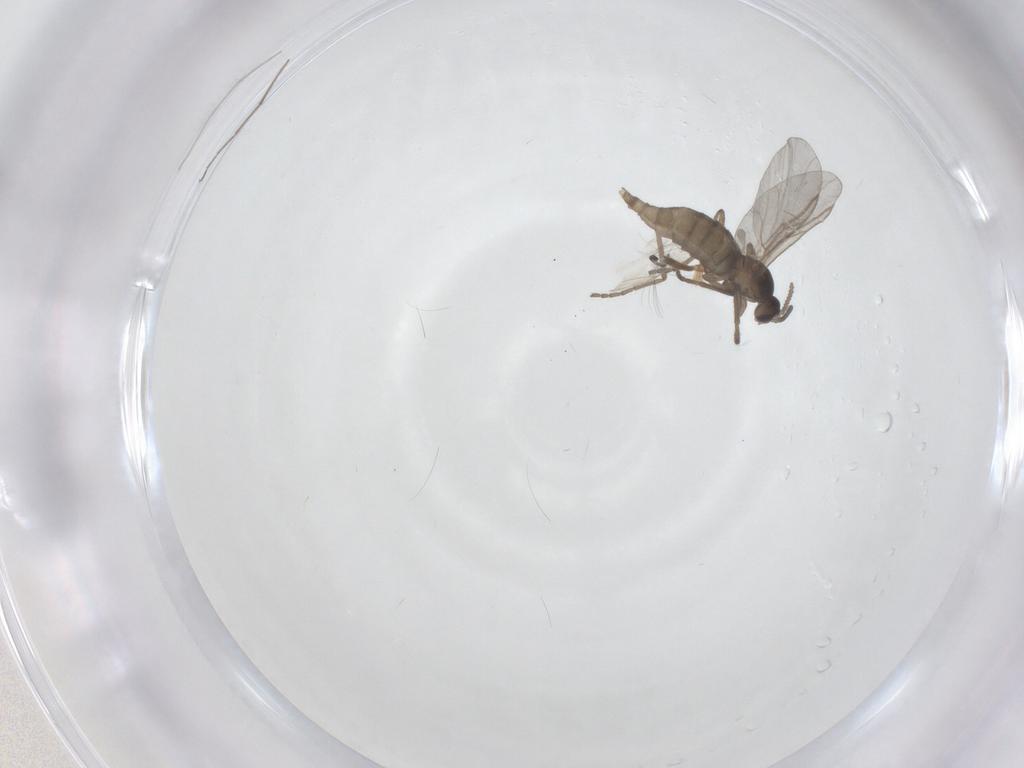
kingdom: Animalia
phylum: Arthropoda
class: Insecta
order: Diptera
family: Cecidomyiidae
